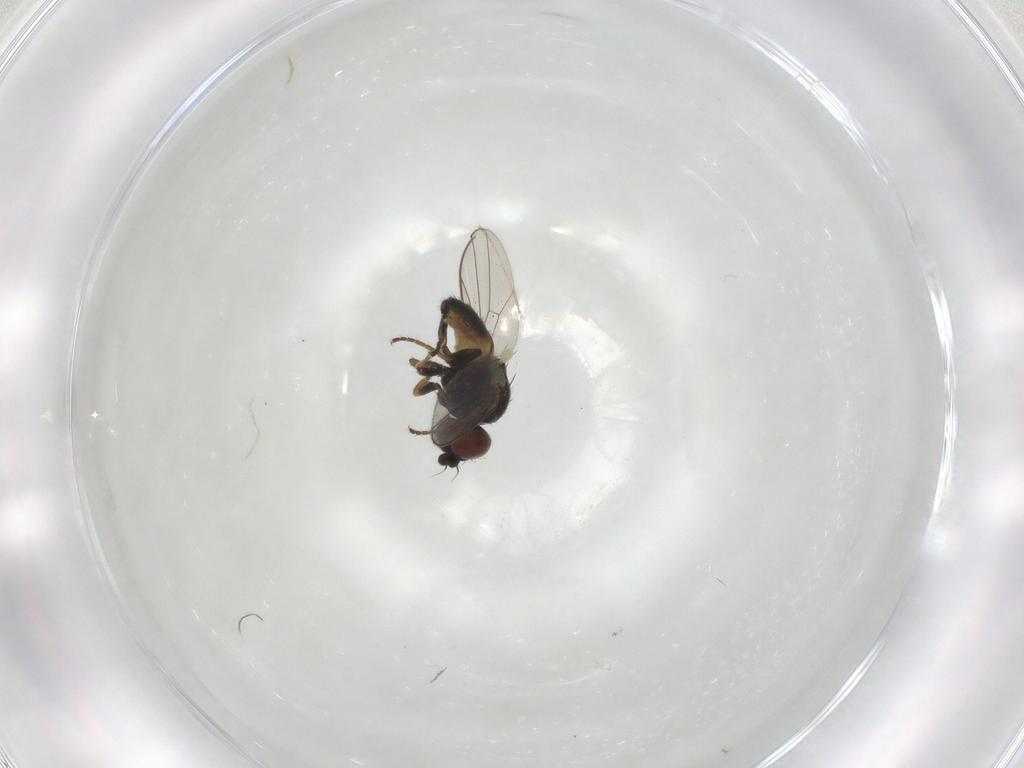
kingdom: Animalia
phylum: Arthropoda
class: Insecta
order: Diptera
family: Chloropidae
